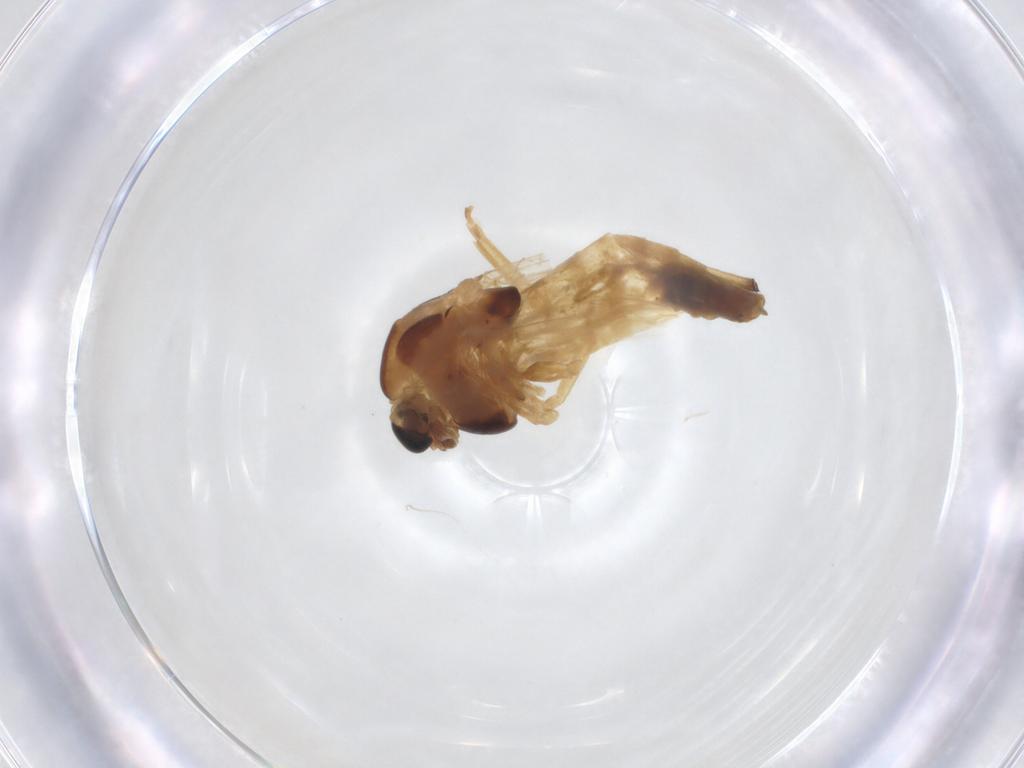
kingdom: Animalia
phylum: Arthropoda
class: Insecta
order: Diptera
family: Chironomidae
